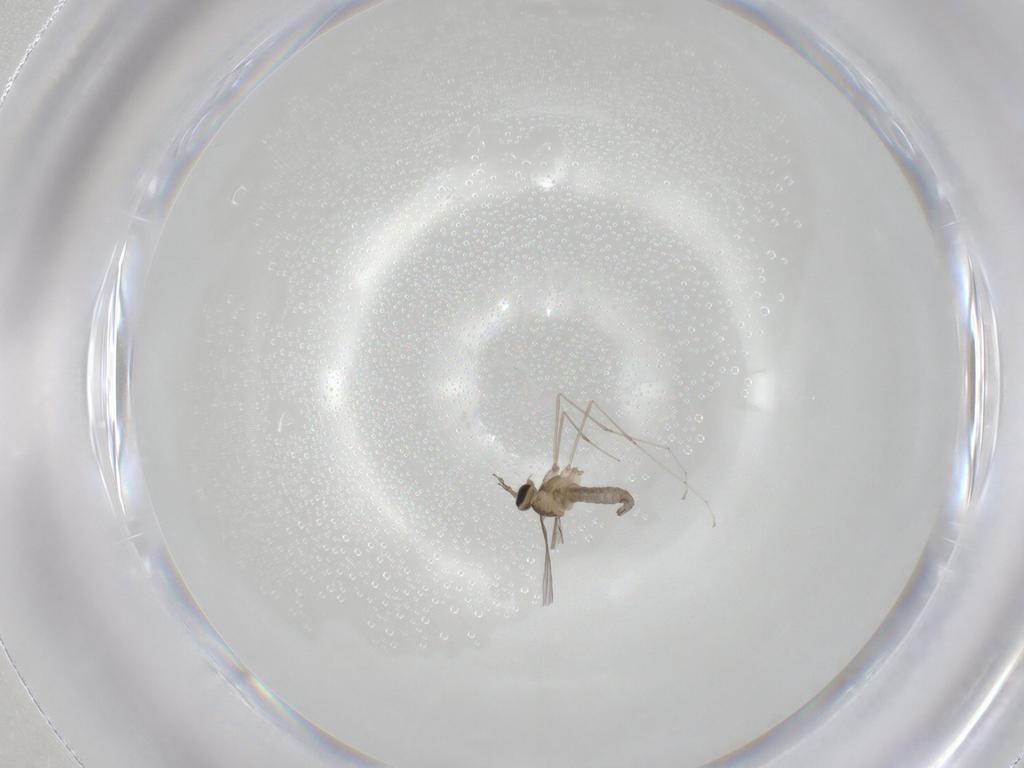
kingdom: Animalia
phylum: Arthropoda
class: Insecta
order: Diptera
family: Cecidomyiidae
